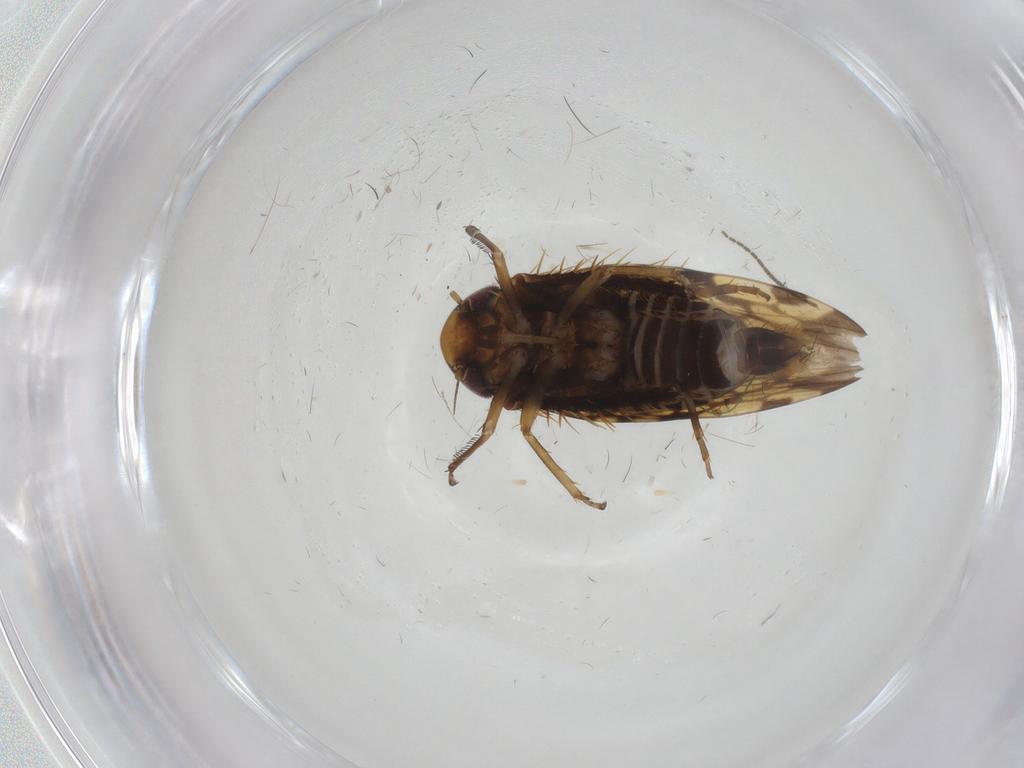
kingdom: Animalia
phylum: Arthropoda
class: Insecta
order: Hemiptera
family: Cicadellidae
